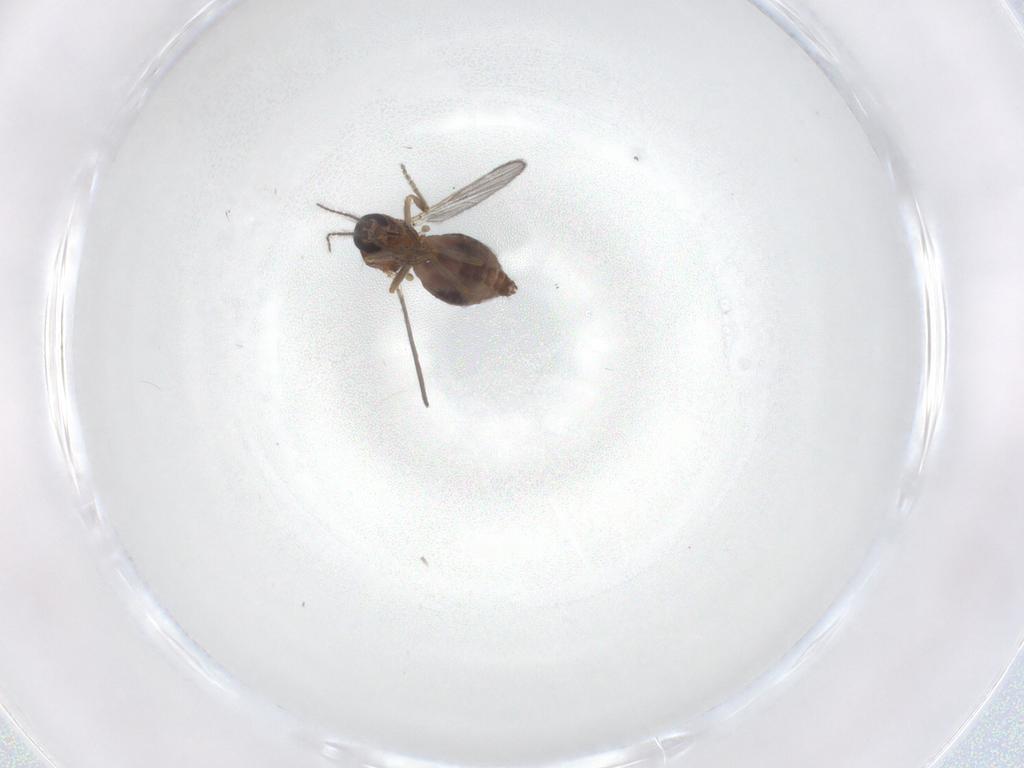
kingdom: Animalia
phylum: Arthropoda
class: Insecta
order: Diptera
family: Ceratopogonidae
